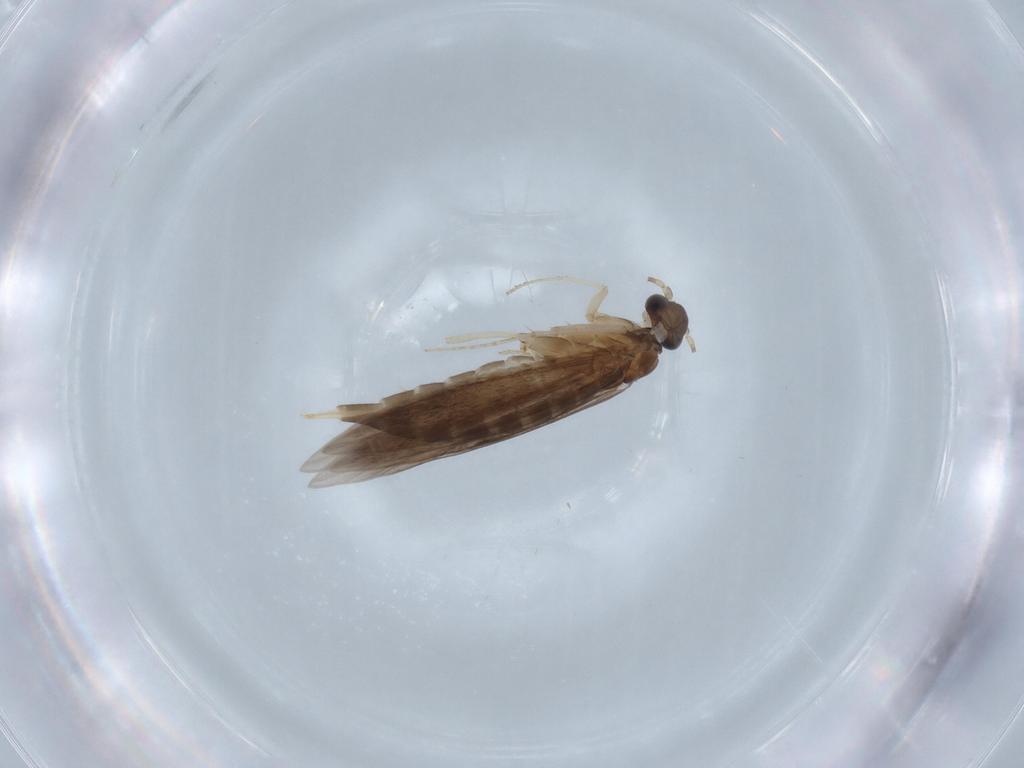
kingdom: Animalia
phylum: Arthropoda
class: Insecta
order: Trichoptera
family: Xiphocentronidae
